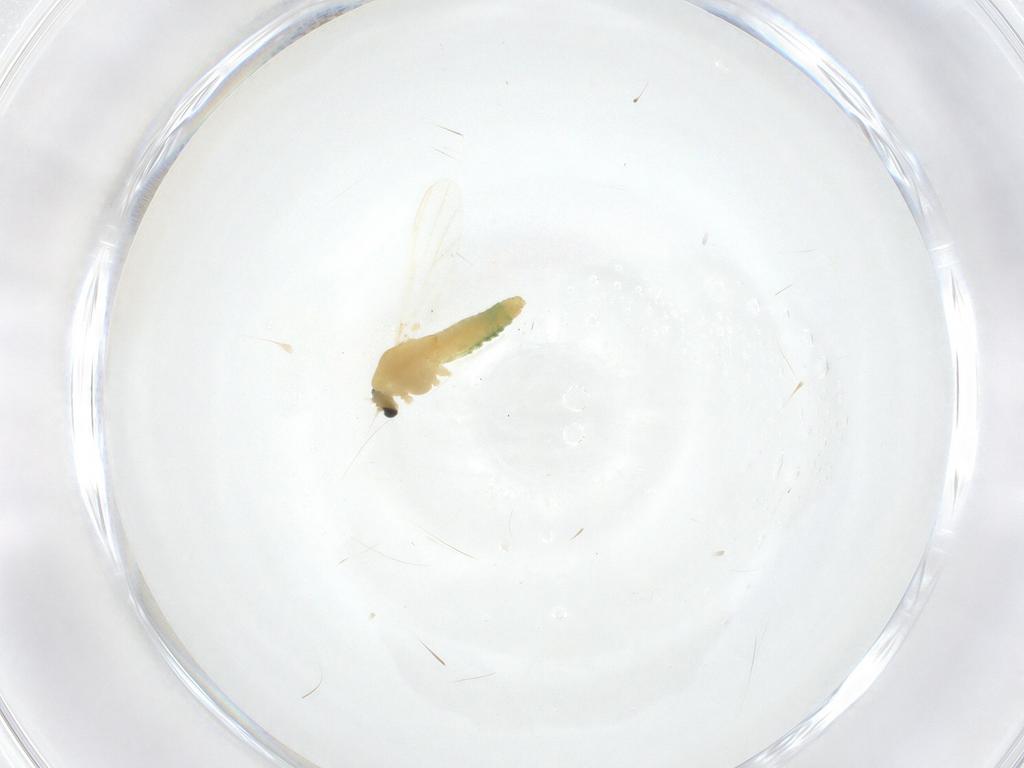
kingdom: Animalia
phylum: Arthropoda
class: Insecta
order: Diptera
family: Chironomidae
